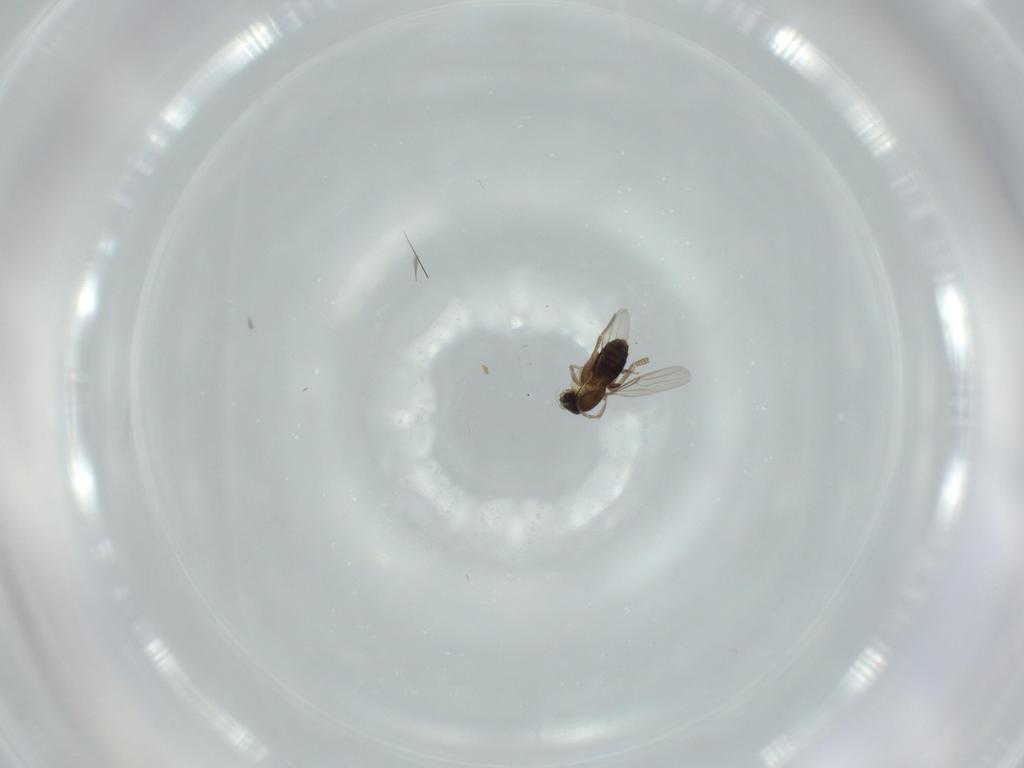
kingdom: Animalia
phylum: Arthropoda
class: Insecta
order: Diptera
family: Phoridae
